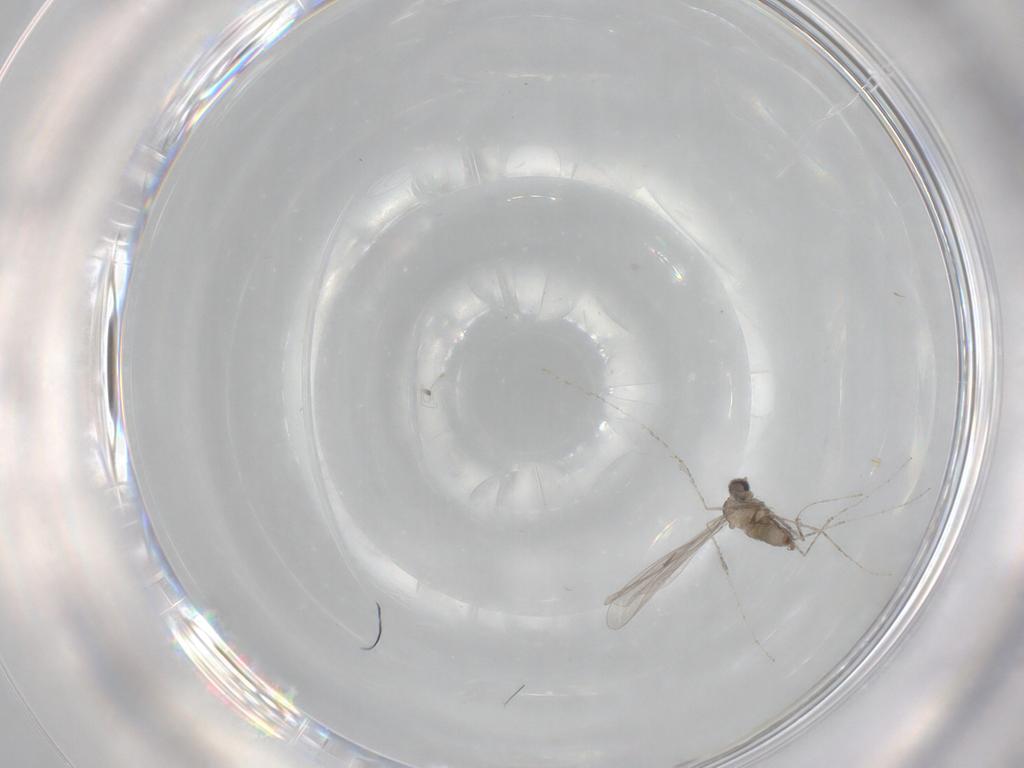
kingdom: Animalia
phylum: Arthropoda
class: Insecta
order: Diptera
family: Cecidomyiidae
